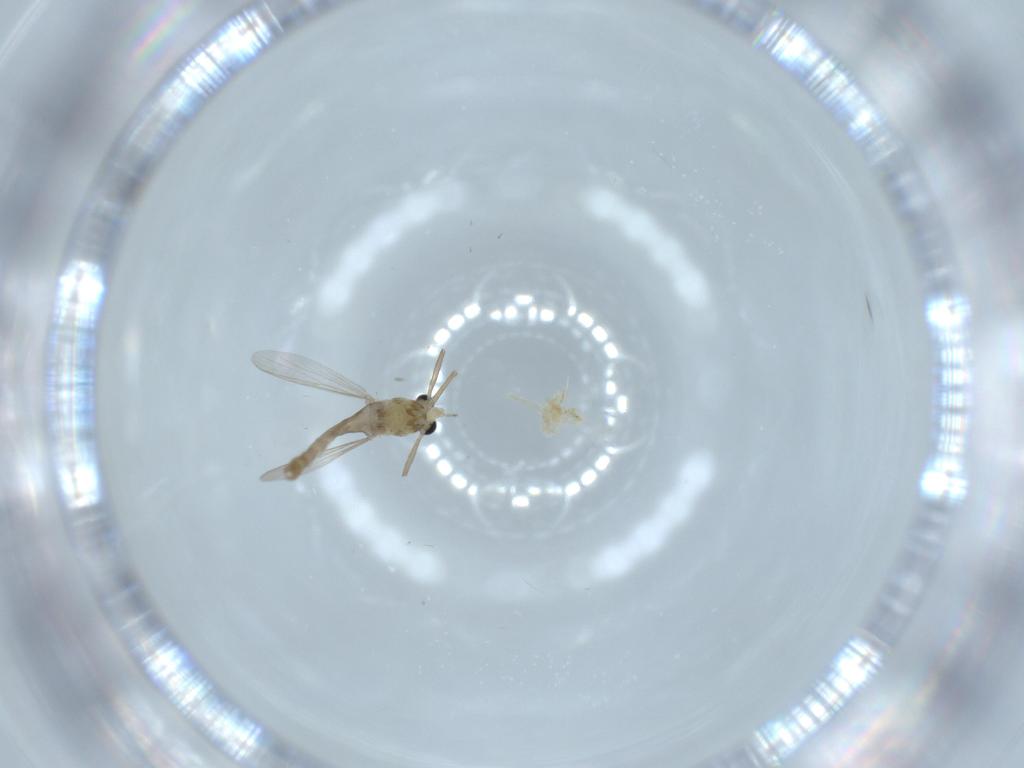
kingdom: Animalia
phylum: Arthropoda
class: Insecta
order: Diptera
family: Chironomidae
